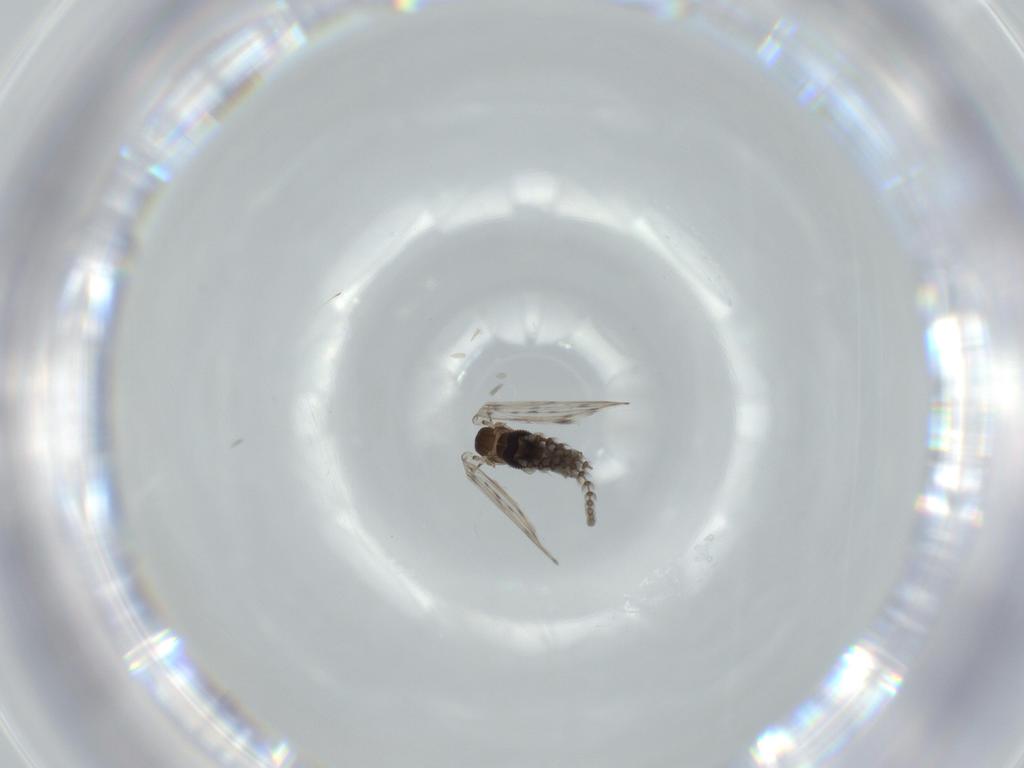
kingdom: Animalia
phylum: Arthropoda
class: Insecta
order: Diptera
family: Psychodidae
